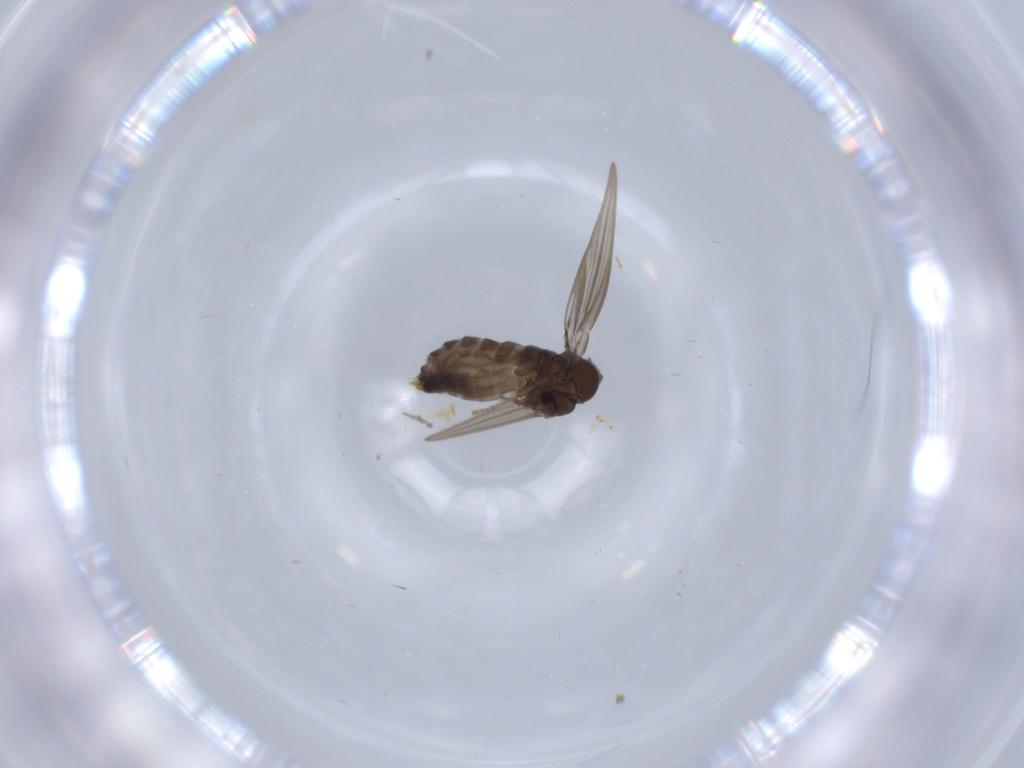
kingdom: Animalia
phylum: Arthropoda
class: Insecta
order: Diptera
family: Psychodidae
